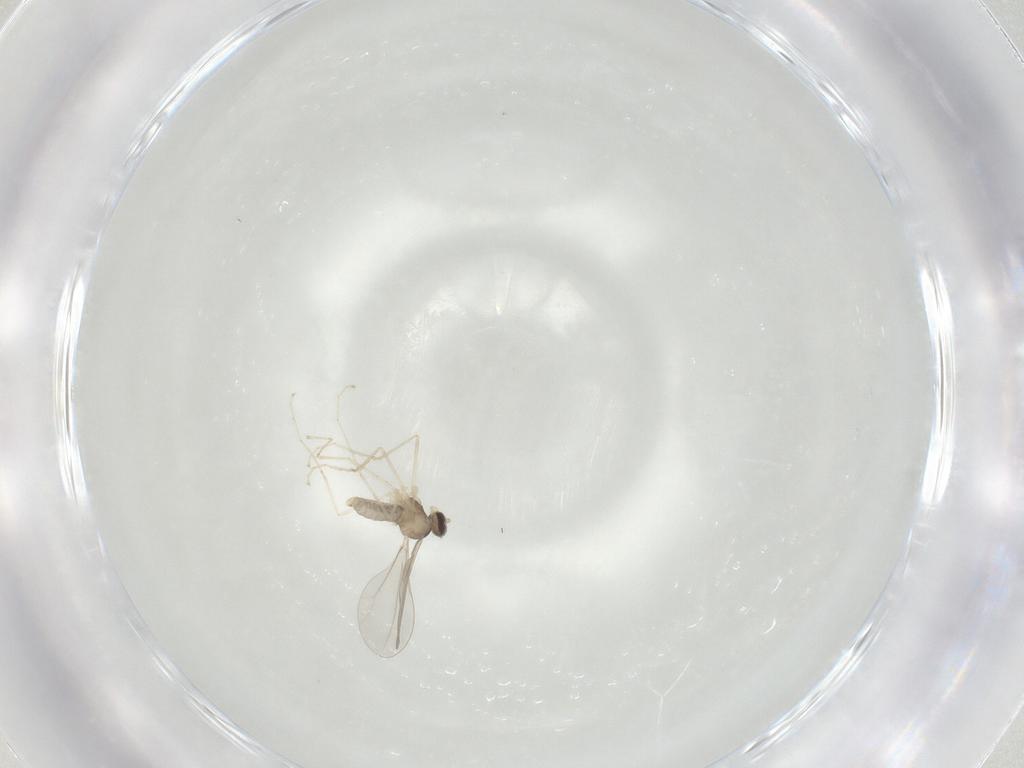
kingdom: Animalia
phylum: Arthropoda
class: Insecta
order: Diptera
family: Cecidomyiidae
